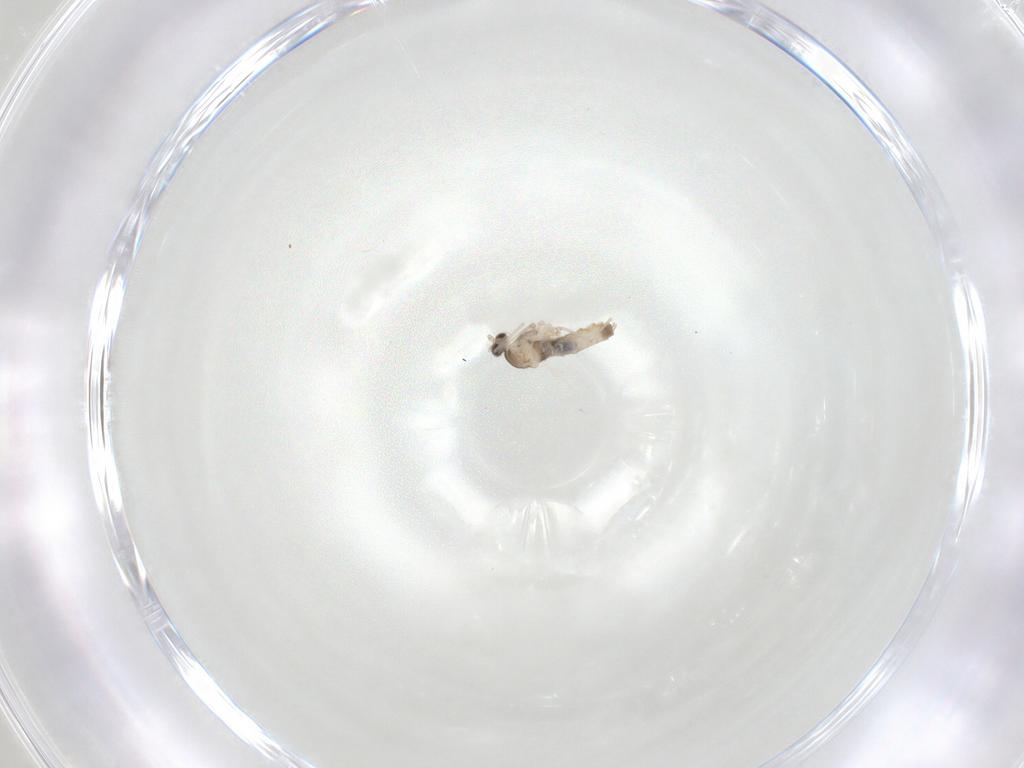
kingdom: Animalia
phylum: Arthropoda
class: Insecta
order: Diptera
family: Cecidomyiidae
